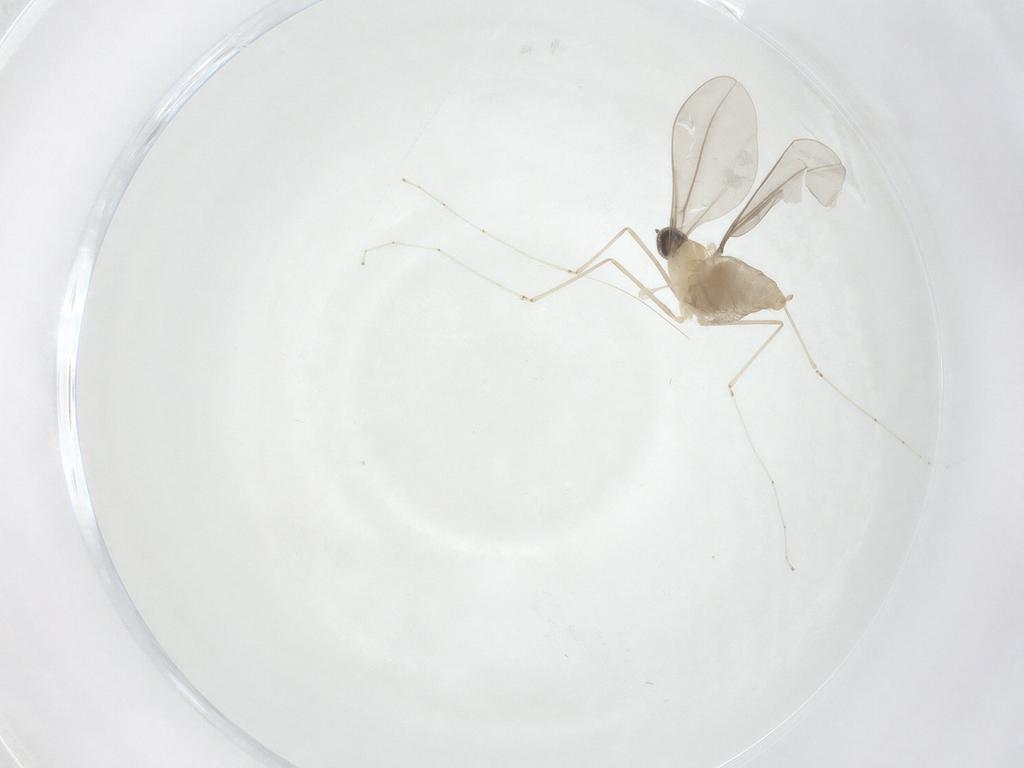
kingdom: Animalia
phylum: Arthropoda
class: Insecta
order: Diptera
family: Cecidomyiidae
